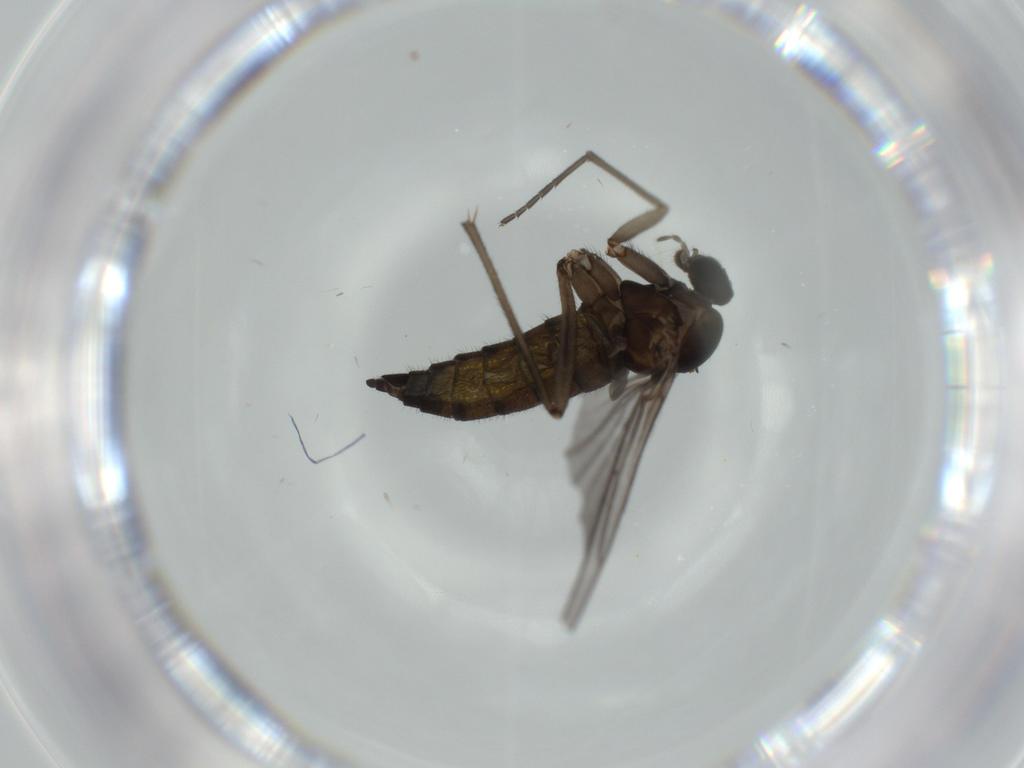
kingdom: Animalia
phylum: Arthropoda
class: Insecta
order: Diptera
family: Sciaridae
